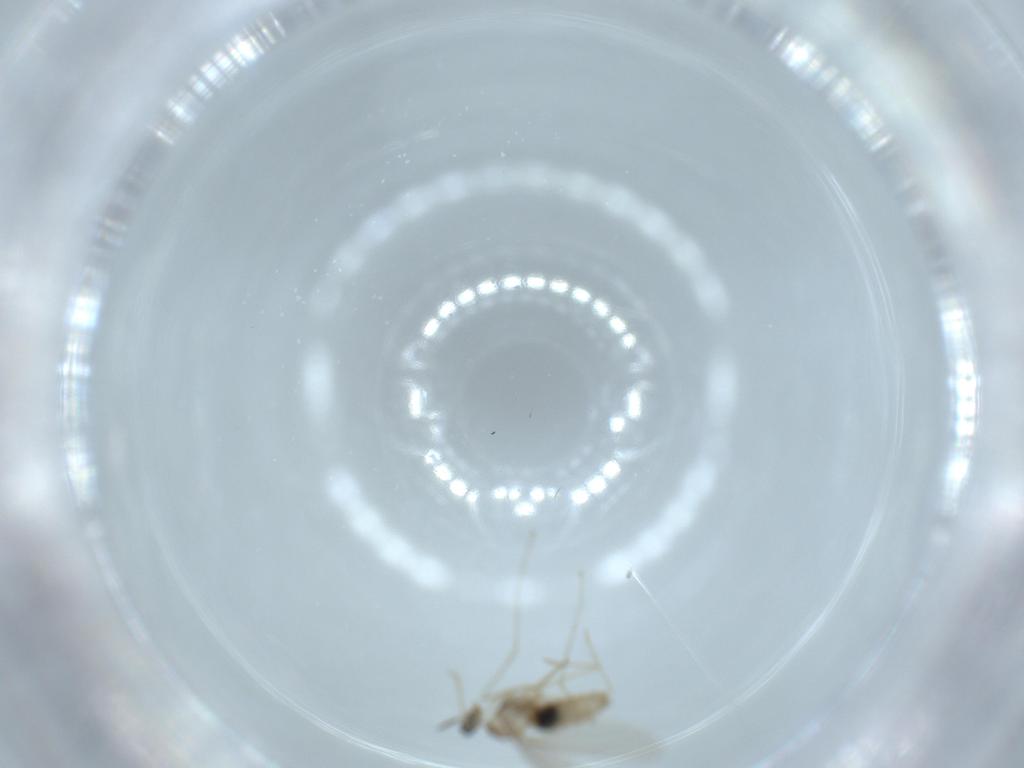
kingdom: Animalia
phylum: Arthropoda
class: Insecta
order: Diptera
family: Chironomidae
